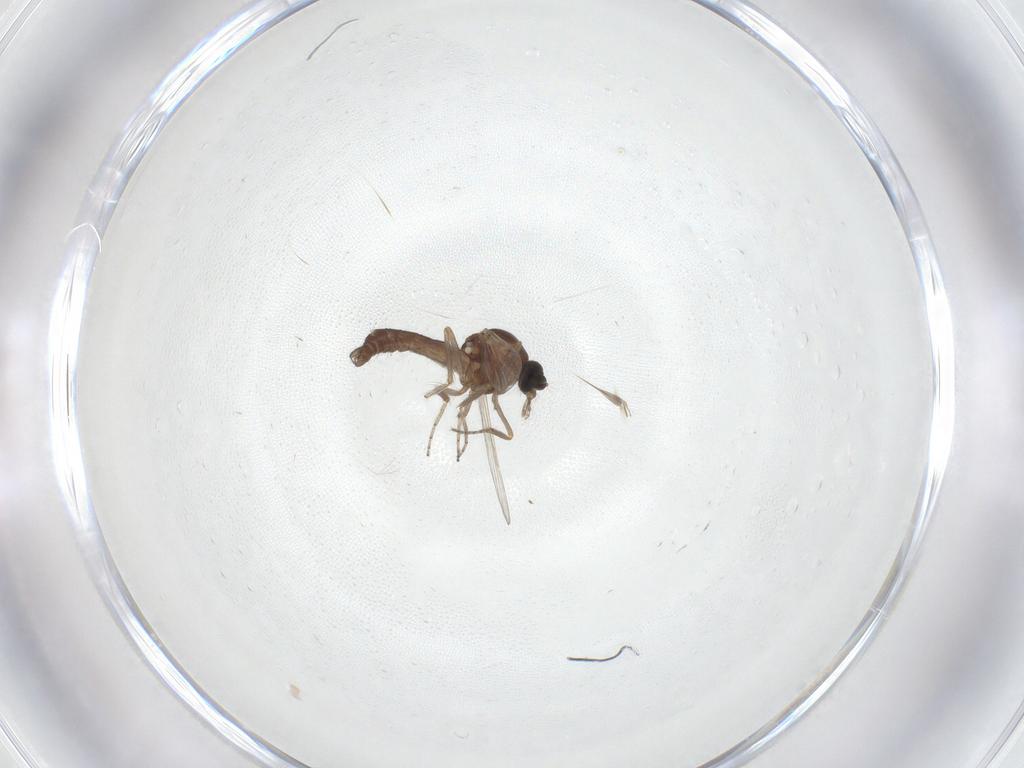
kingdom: Animalia
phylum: Arthropoda
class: Insecta
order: Diptera
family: Ceratopogonidae
